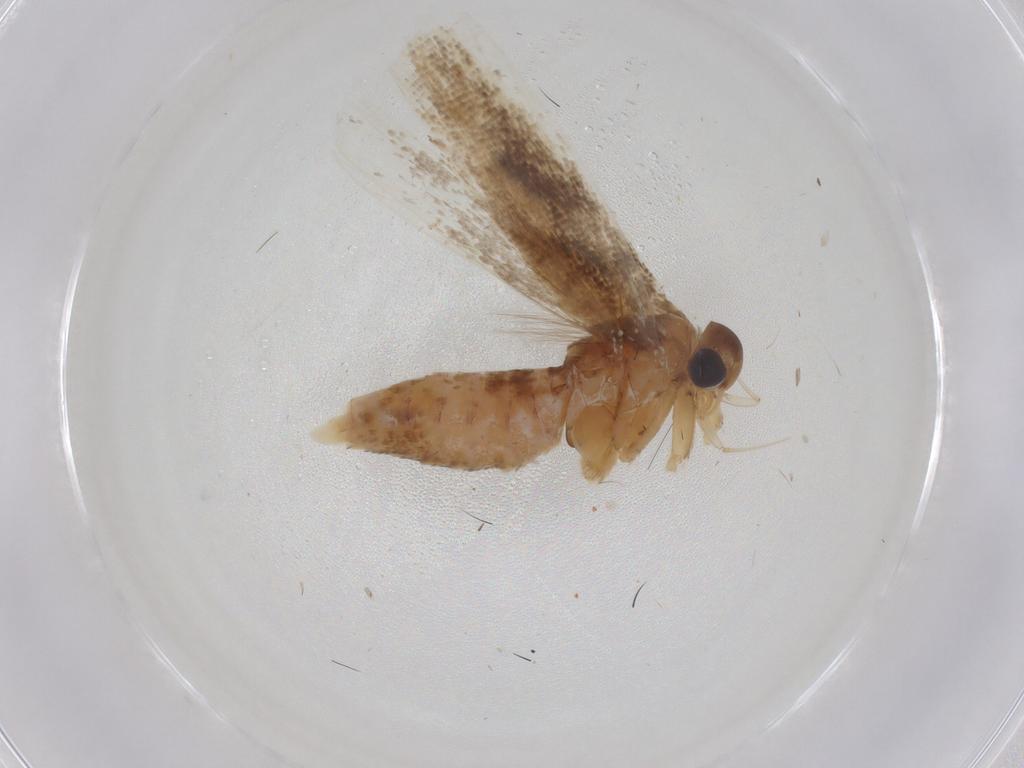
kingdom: Animalia
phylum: Arthropoda
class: Insecta
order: Lepidoptera
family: Gelechiidae
